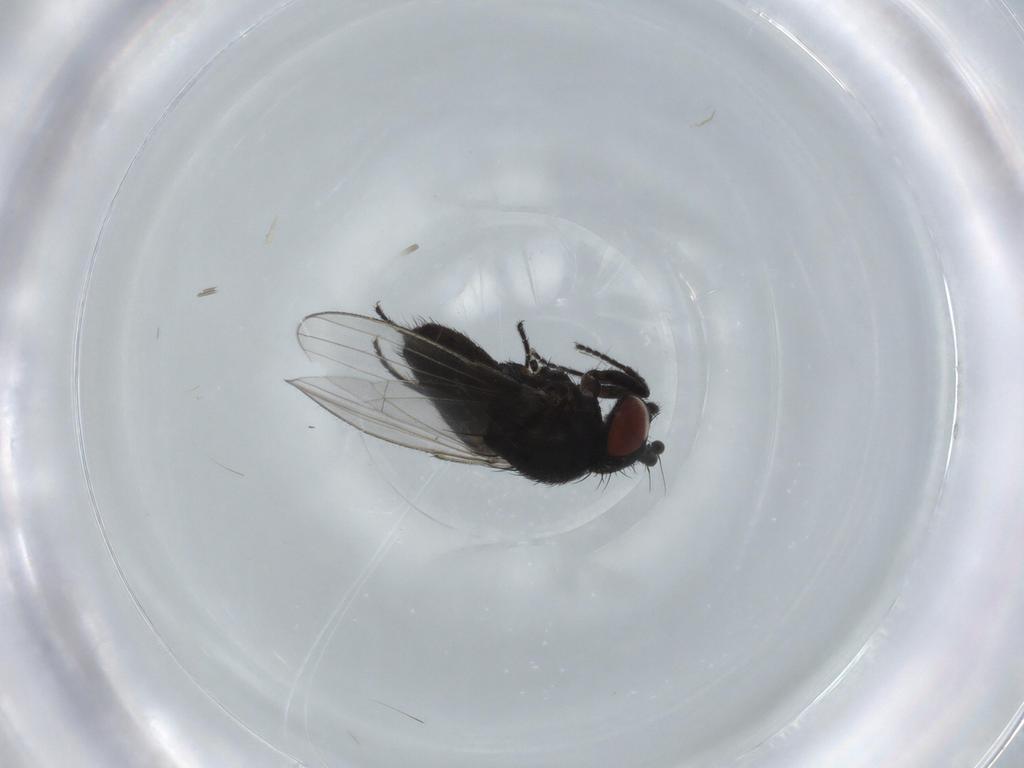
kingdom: Animalia
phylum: Arthropoda
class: Insecta
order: Diptera
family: Milichiidae
